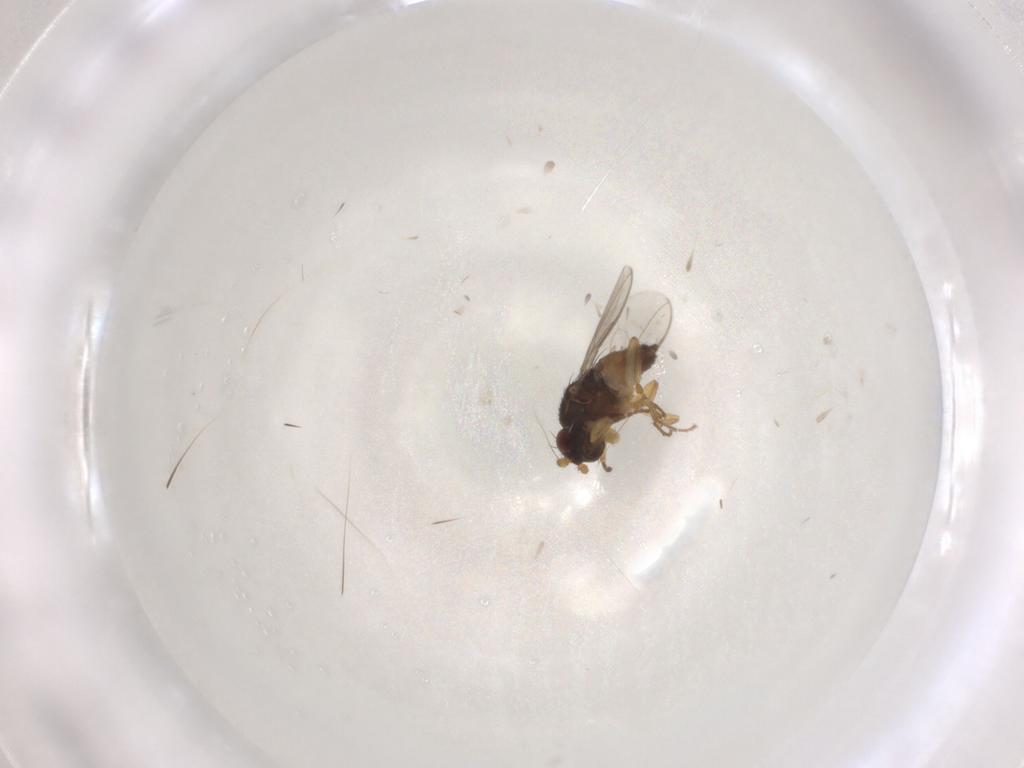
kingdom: Animalia
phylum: Arthropoda
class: Insecta
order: Diptera
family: Sphaeroceridae
